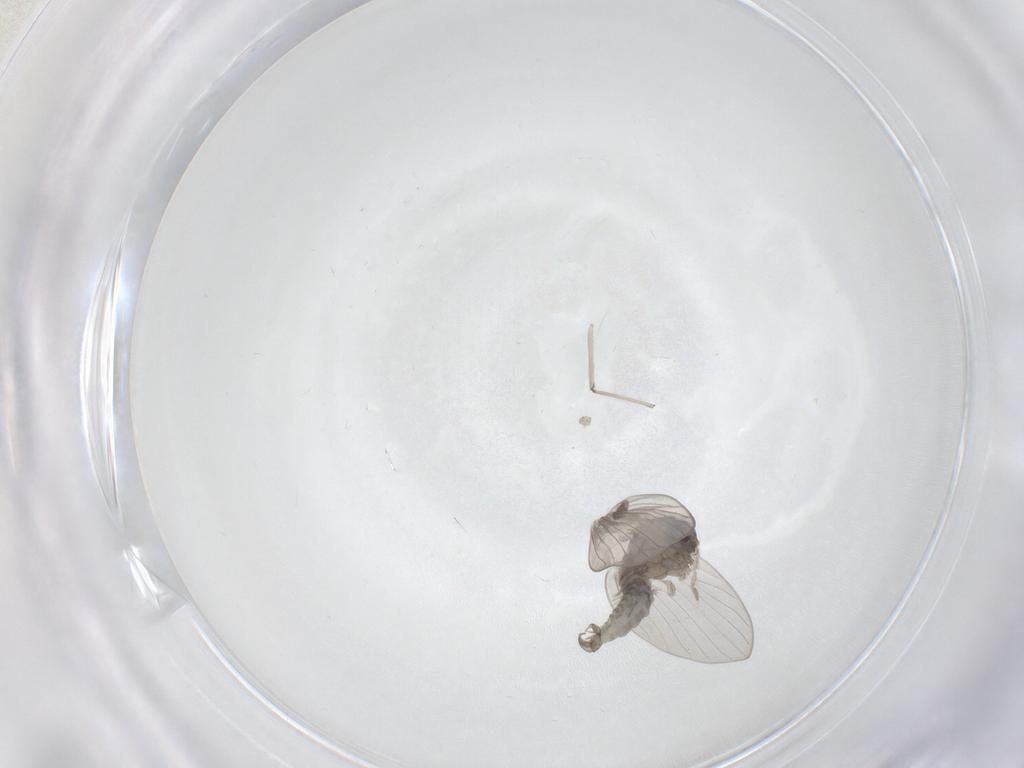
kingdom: Animalia
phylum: Arthropoda
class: Insecta
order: Diptera
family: Psychodidae
